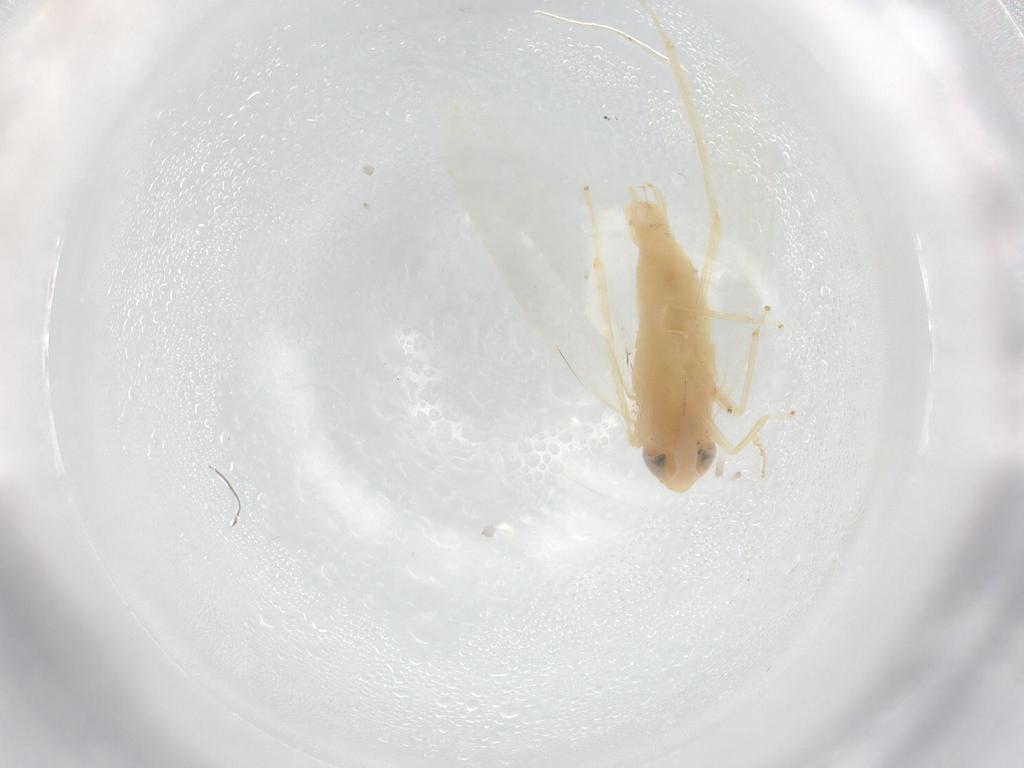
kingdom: Animalia
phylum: Arthropoda
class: Insecta
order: Hemiptera
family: Cicadellidae
